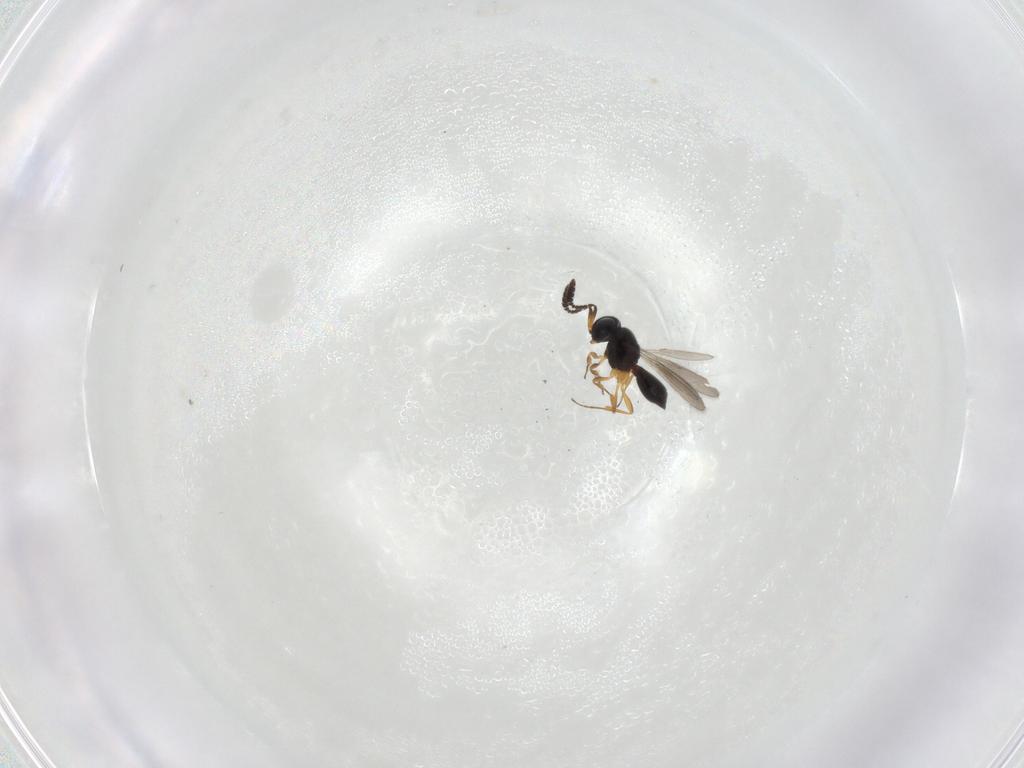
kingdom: Animalia
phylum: Arthropoda
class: Insecta
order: Hymenoptera
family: Scelionidae
